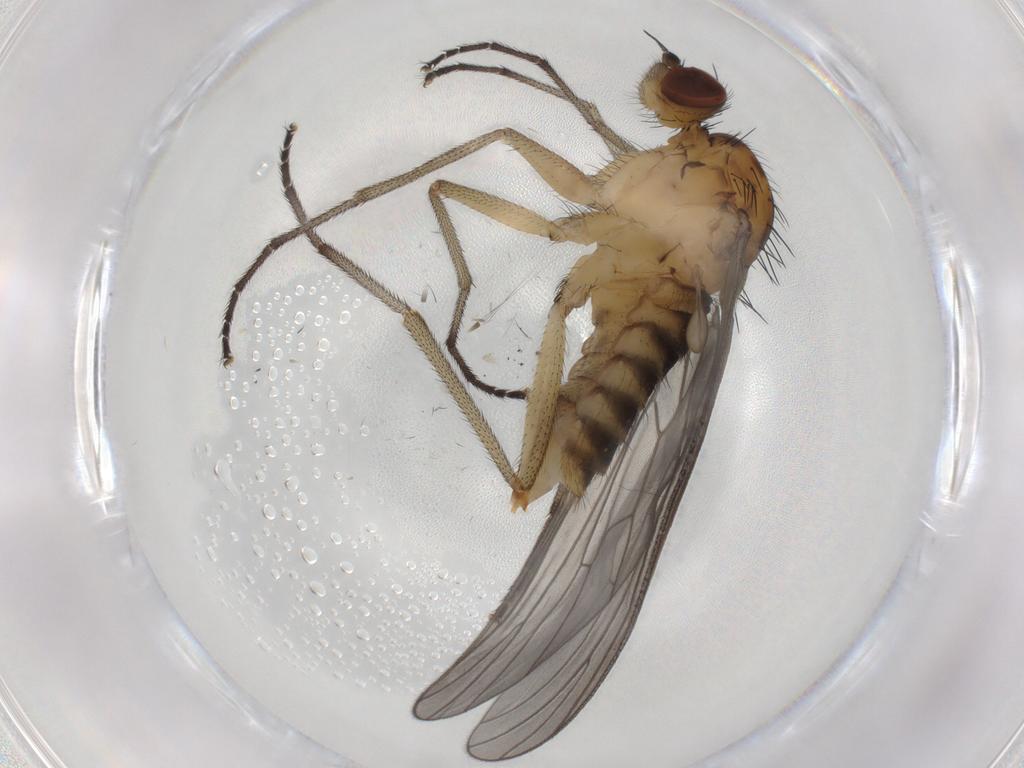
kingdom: Animalia
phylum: Arthropoda
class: Insecta
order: Diptera
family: Brachystomatidae
